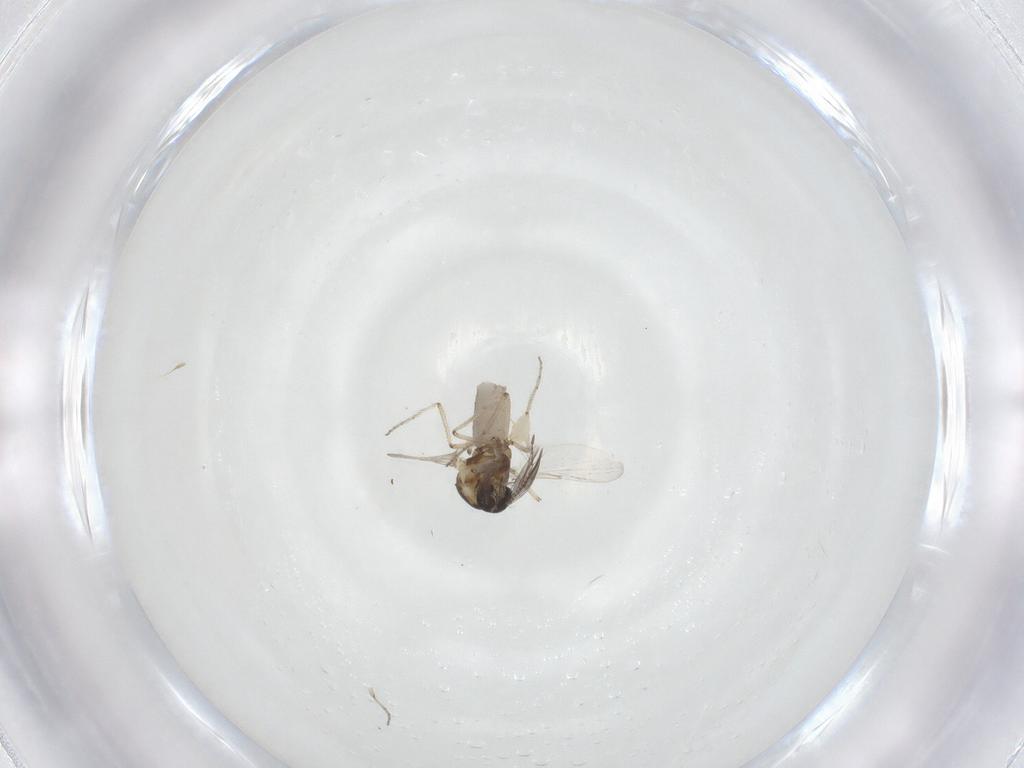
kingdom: Animalia
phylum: Arthropoda
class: Insecta
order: Diptera
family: Ceratopogonidae
